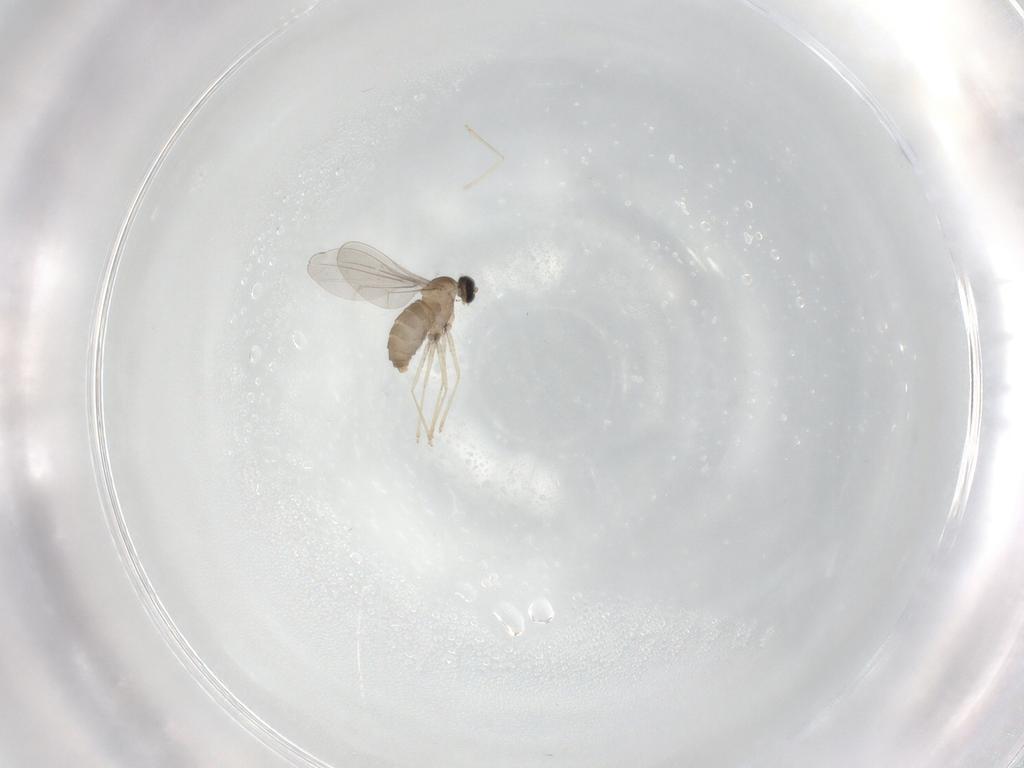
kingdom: Animalia
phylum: Arthropoda
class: Insecta
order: Diptera
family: Cecidomyiidae
